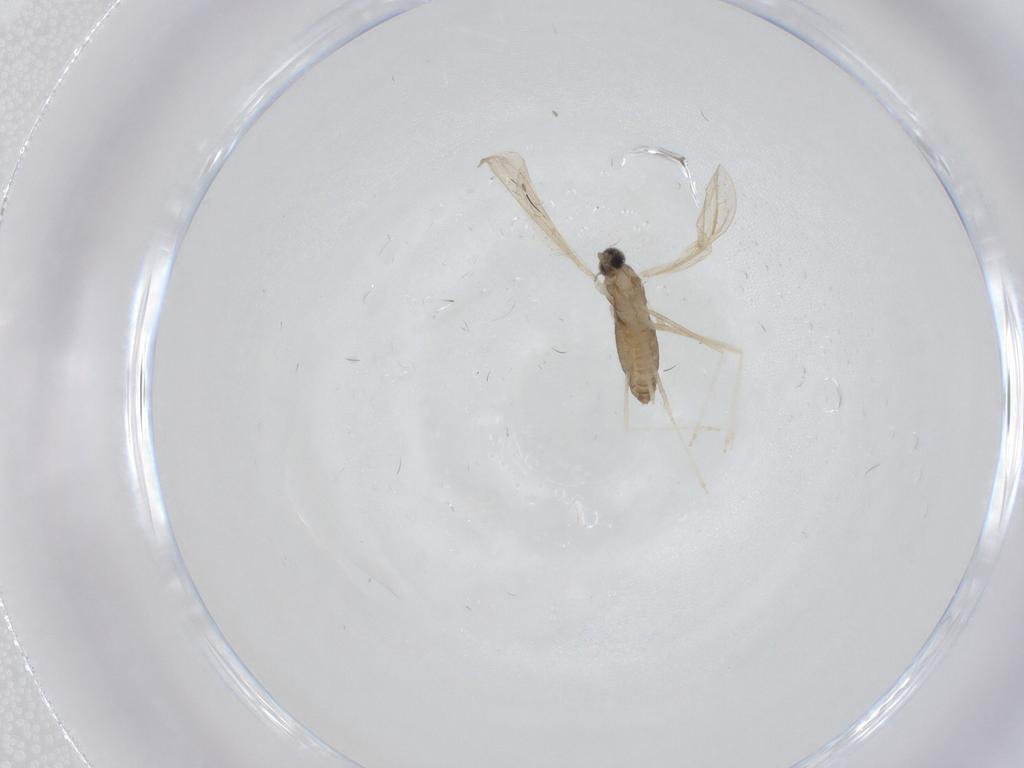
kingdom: Animalia
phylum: Arthropoda
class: Insecta
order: Diptera
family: Cecidomyiidae
